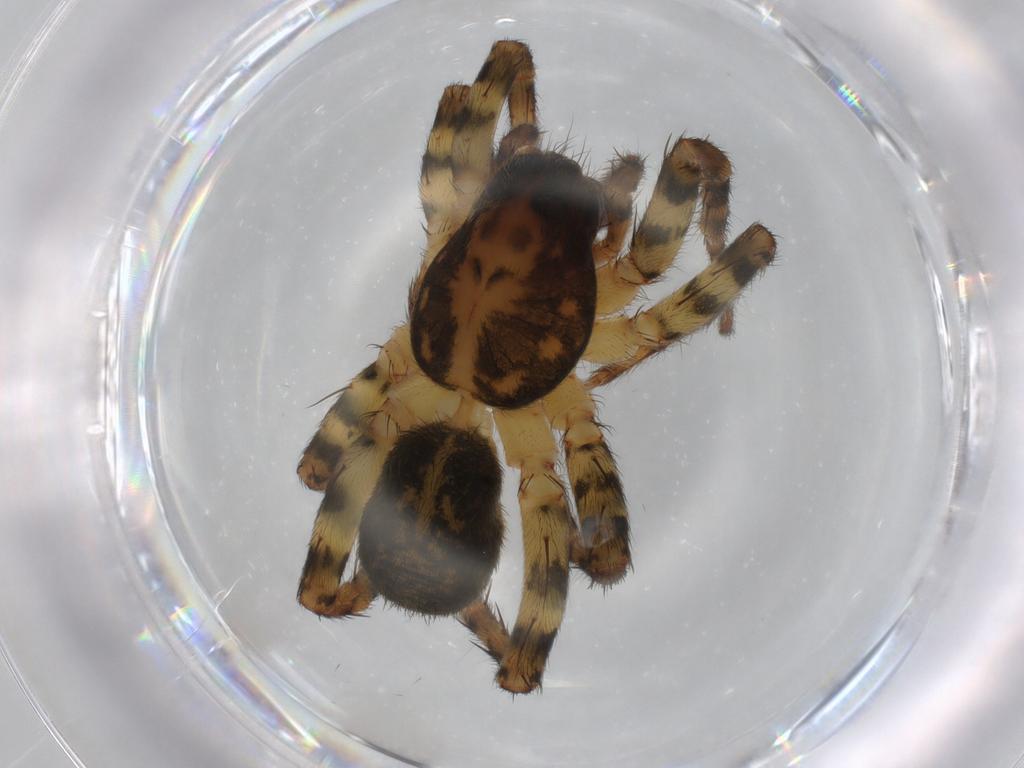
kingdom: Animalia
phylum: Arthropoda
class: Arachnida
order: Araneae
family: Lycosidae
